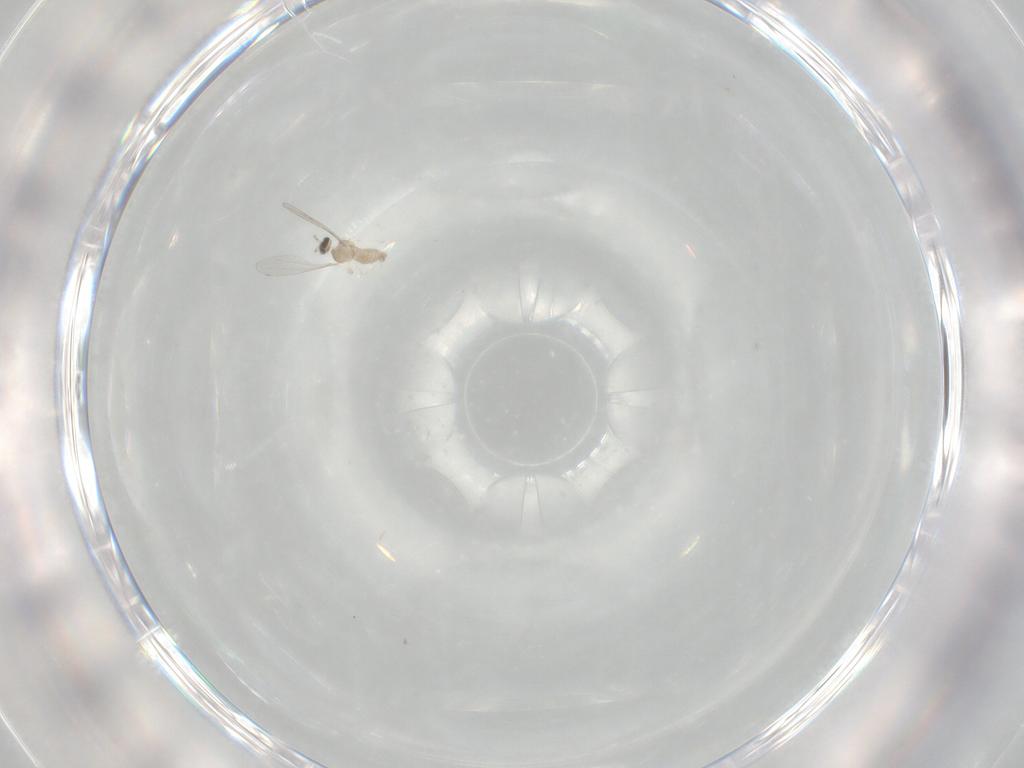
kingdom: Animalia
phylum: Arthropoda
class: Insecta
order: Diptera
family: Cecidomyiidae
